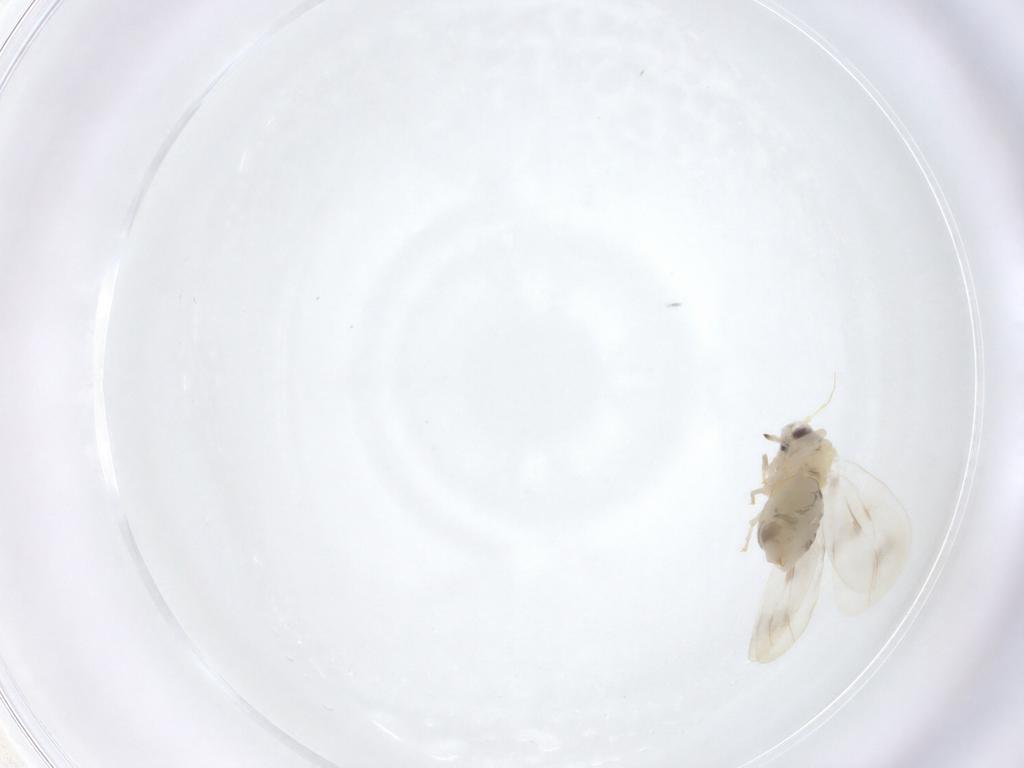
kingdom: Animalia
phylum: Arthropoda
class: Insecta
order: Hemiptera
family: Aleyrodidae
